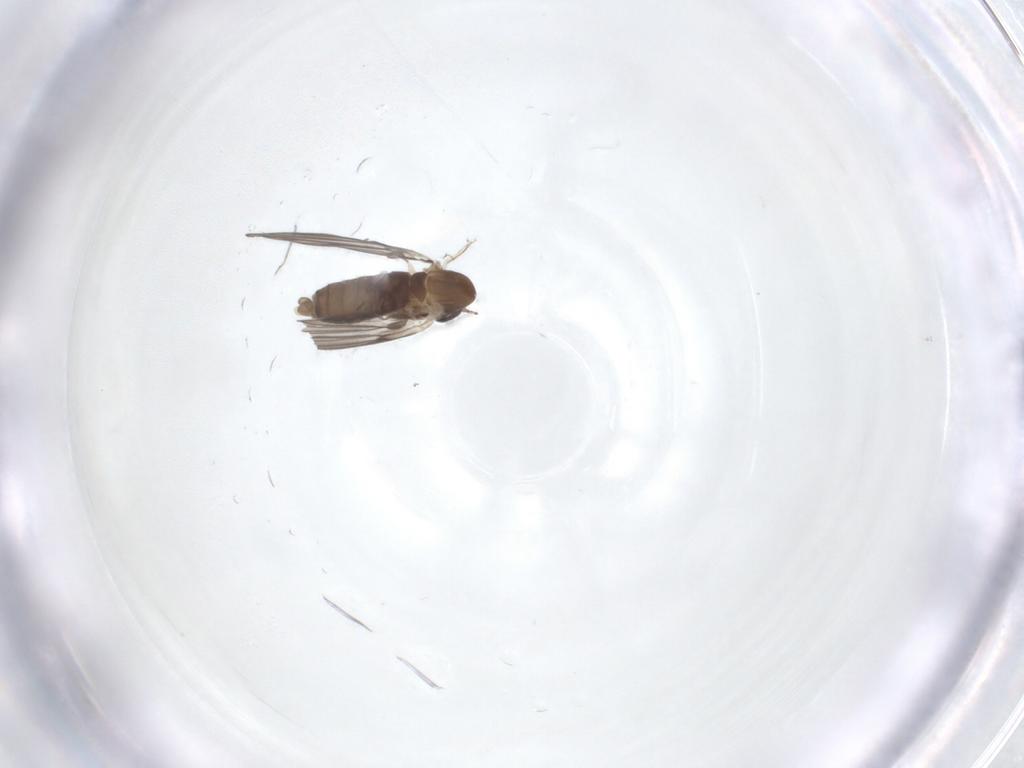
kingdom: Animalia
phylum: Arthropoda
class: Insecta
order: Diptera
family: Psychodidae
